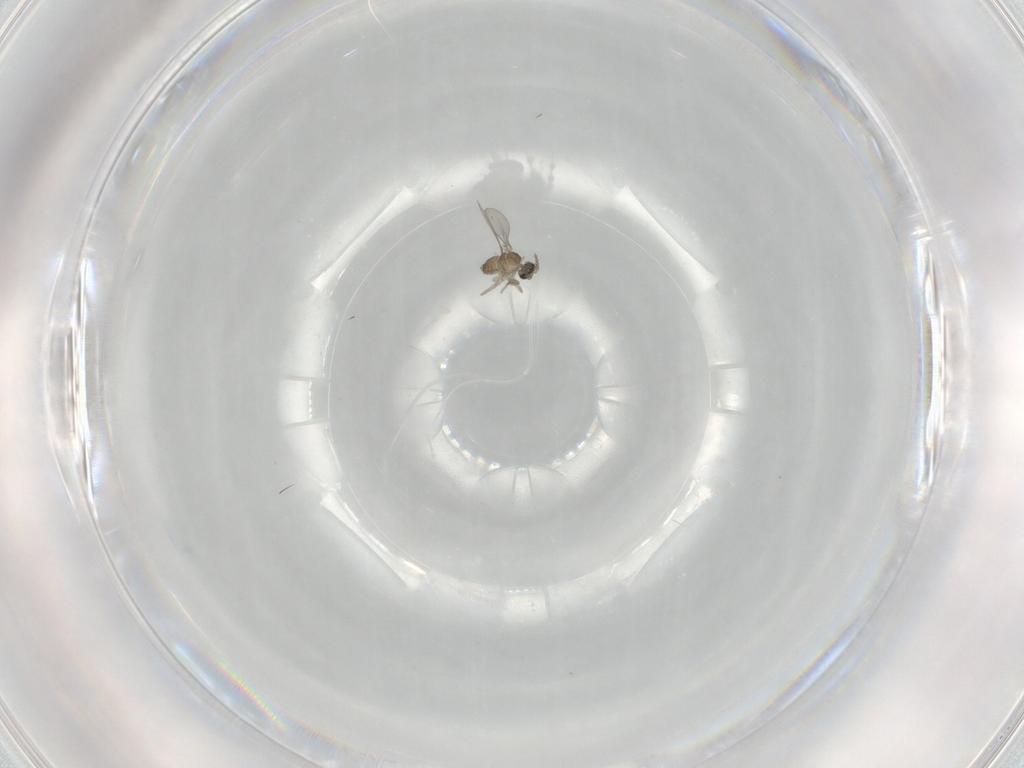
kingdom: Animalia
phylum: Arthropoda
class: Insecta
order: Diptera
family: Cecidomyiidae
